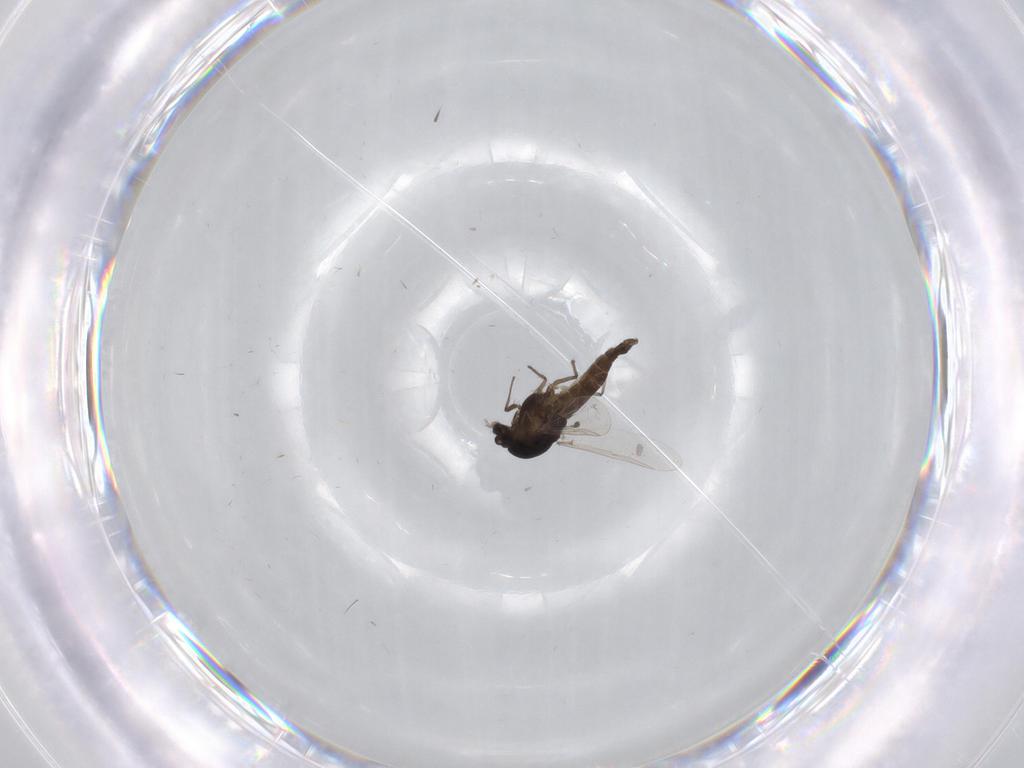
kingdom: Animalia
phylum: Arthropoda
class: Insecta
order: Diptera
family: Chironomidae
